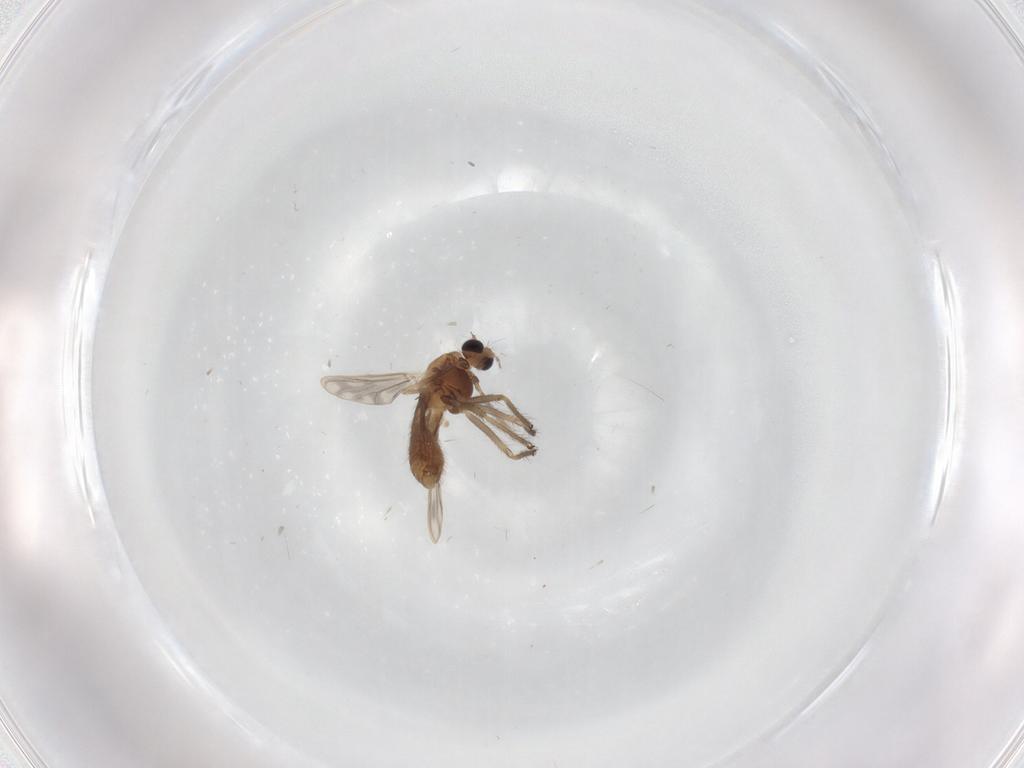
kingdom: Animalia
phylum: Arthropoda
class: Insecta
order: Diptera
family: Chironomidae
